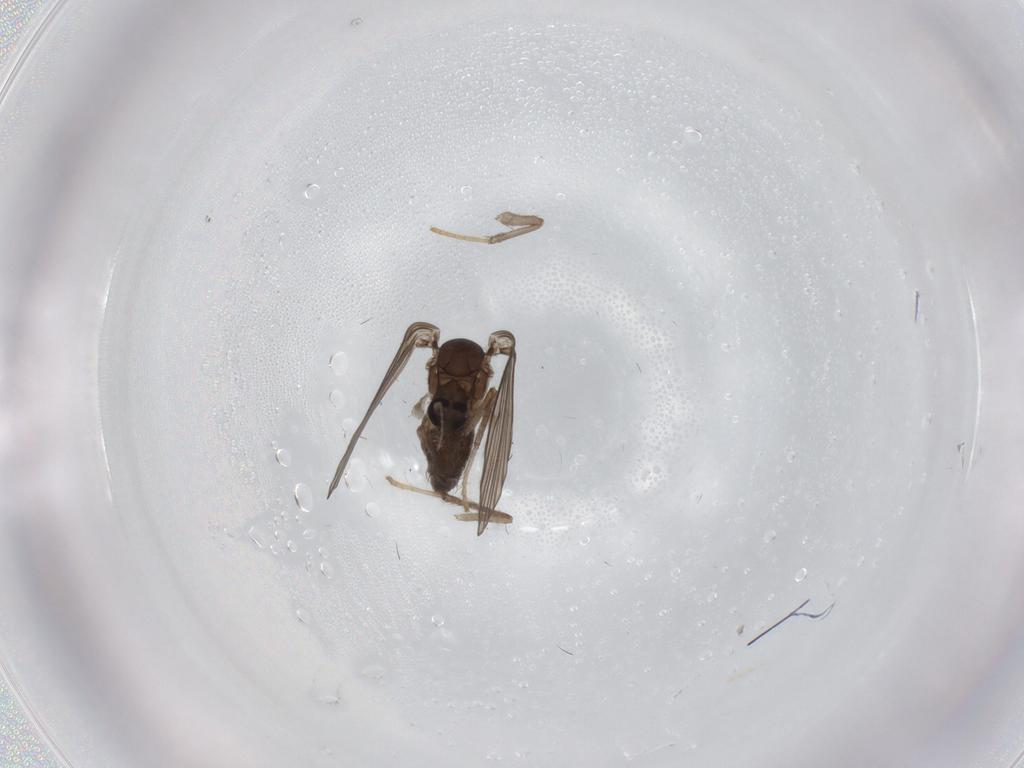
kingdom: Animalia
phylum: Arthropoda
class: Insecta
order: Diptera
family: Psychodidae
